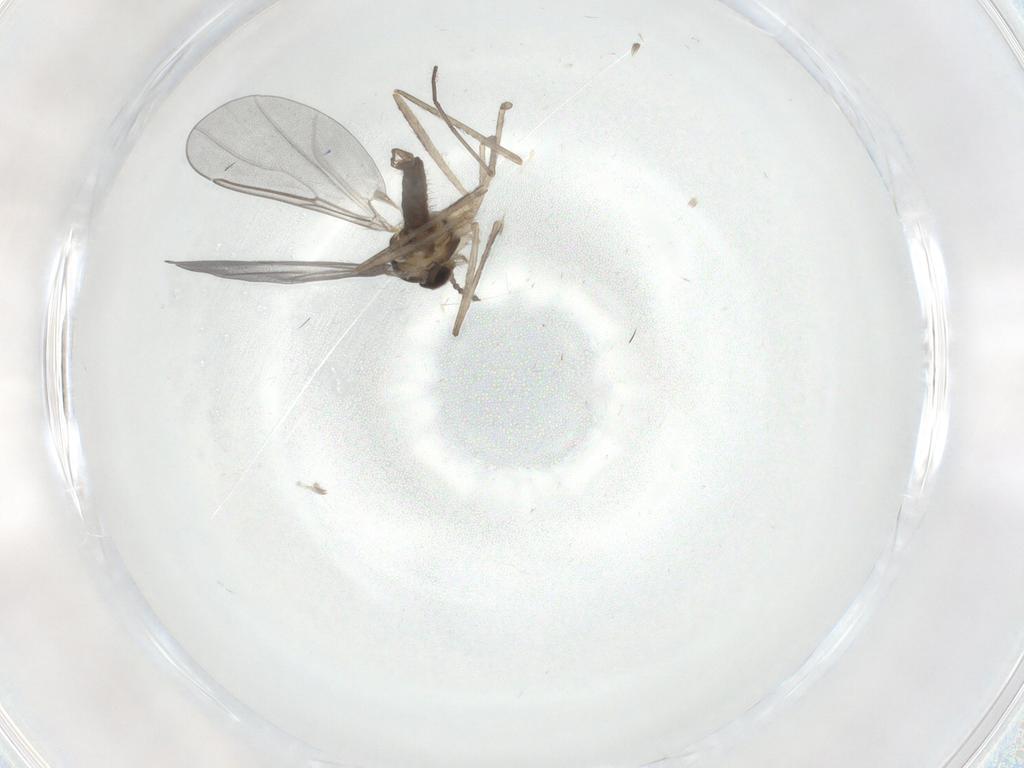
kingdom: Animalia
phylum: Arthropoda
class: Insecta
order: Diptera
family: Cecidomyiidae
